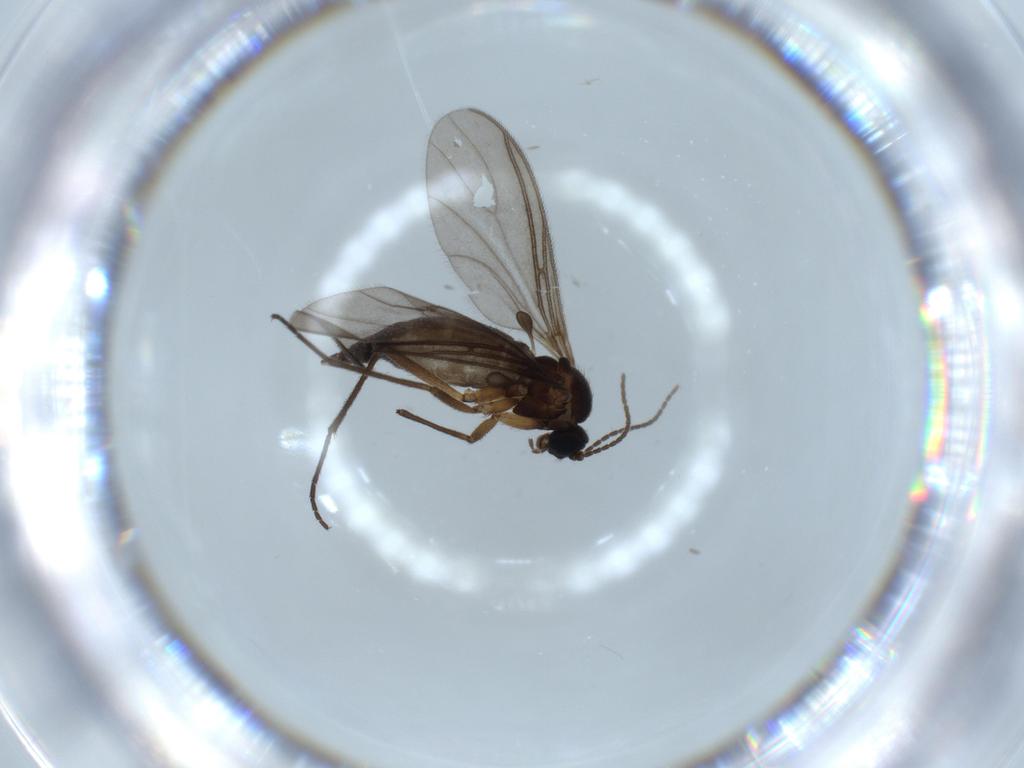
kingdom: Animalia
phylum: Arthropoda
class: Insecta
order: Diptera
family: Sciaridae
